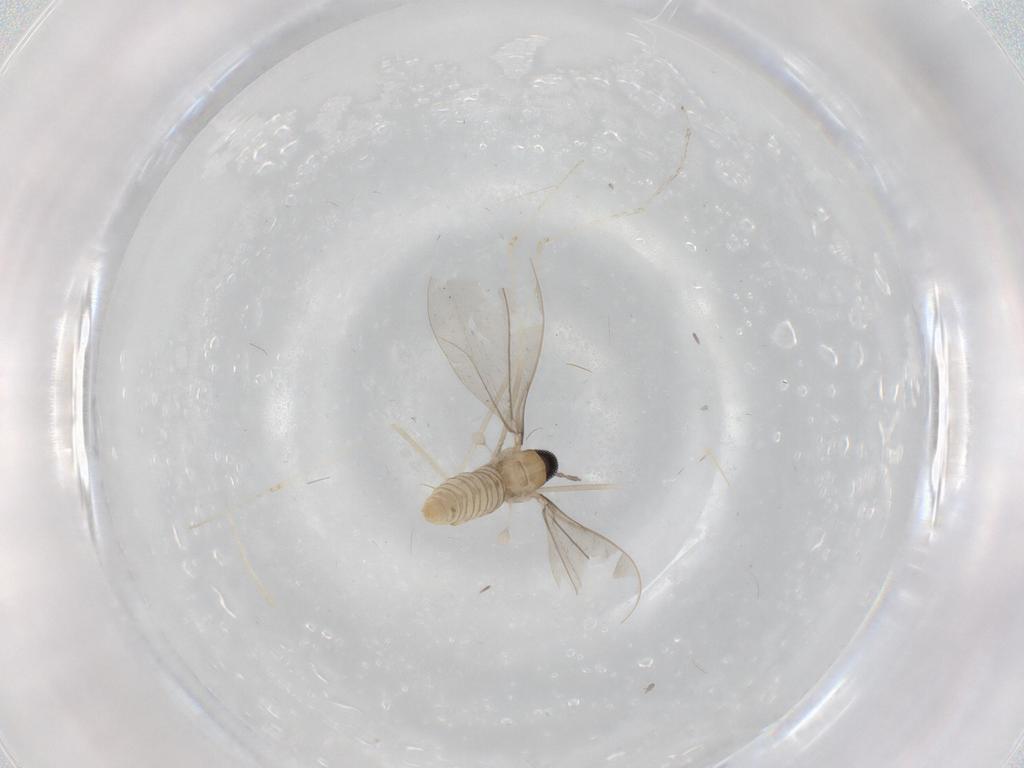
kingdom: Animalia
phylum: Arthropoda
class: Insecta
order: Diptera
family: Cecidomyiidae
